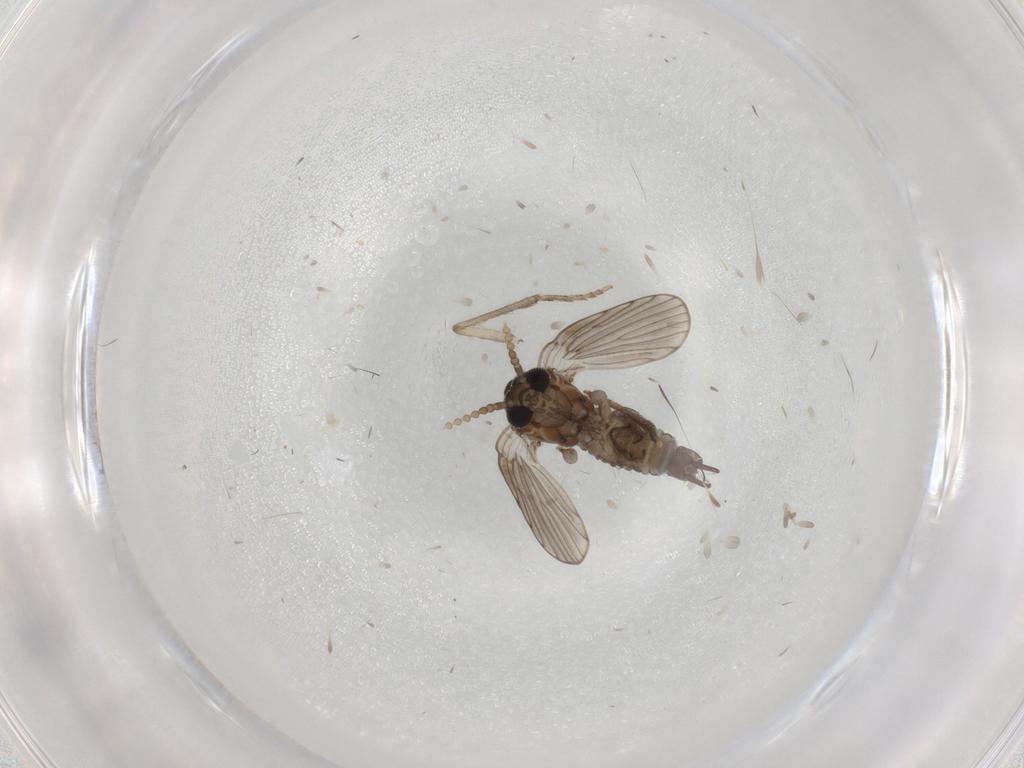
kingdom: Animalia
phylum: Arthropoda
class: Insecta
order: Diptera
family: Psychodidae
